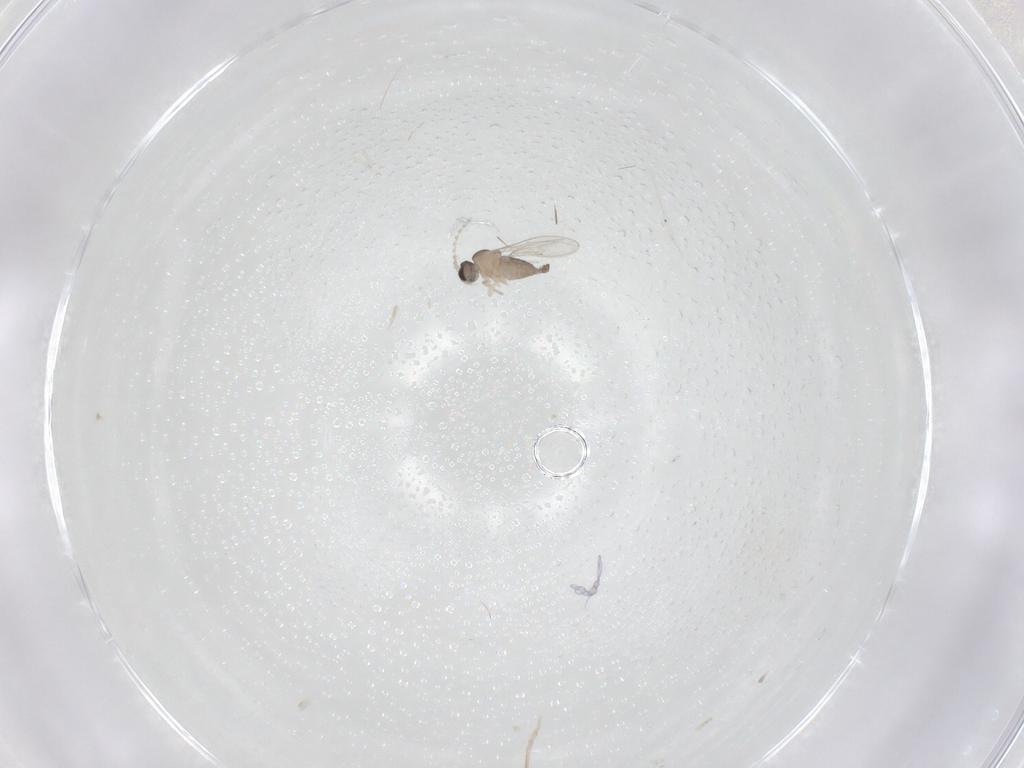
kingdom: Animalia
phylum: Arthropoda
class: Insecta
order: Diptera
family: Cecidomyiidae
